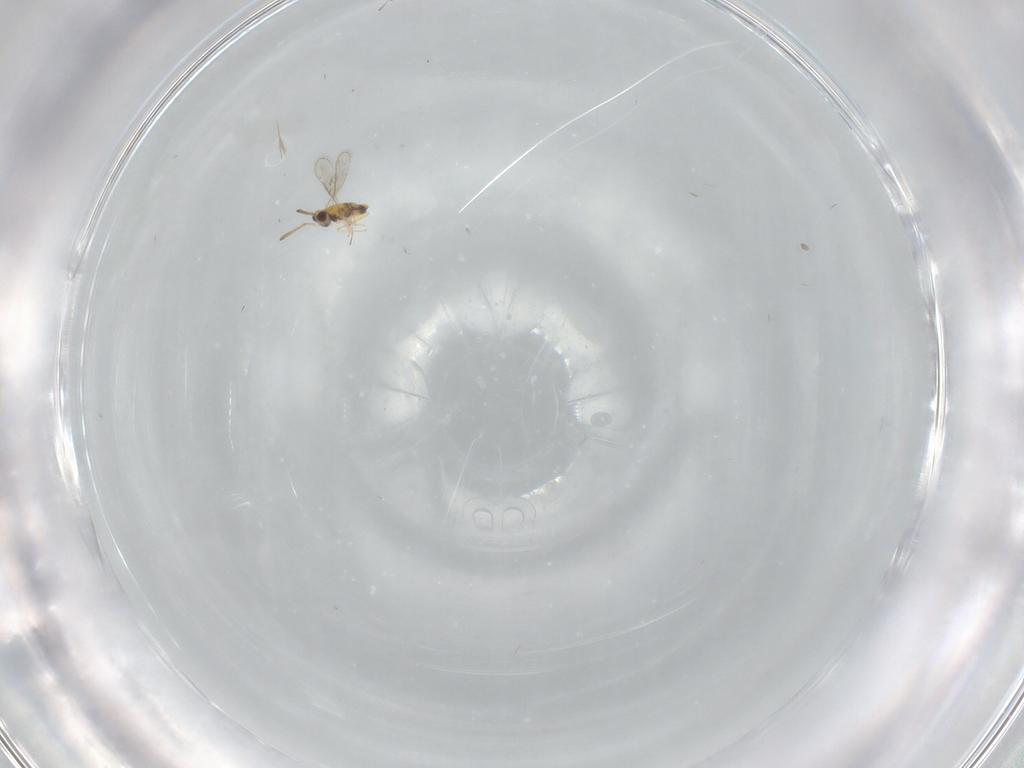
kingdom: Animalia
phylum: Arthropoda
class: Insecta
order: Hymenoptera
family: Aphelinidae
